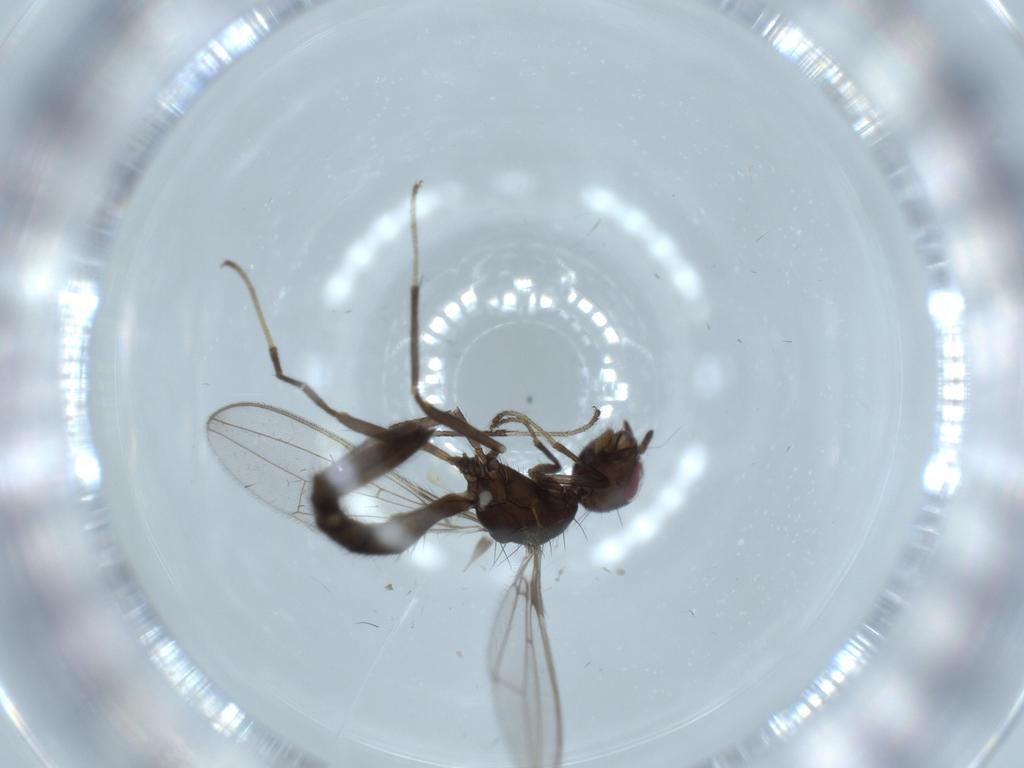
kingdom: Animalia
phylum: Arthropoda
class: Insecta
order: Diptera
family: Richardiidae
